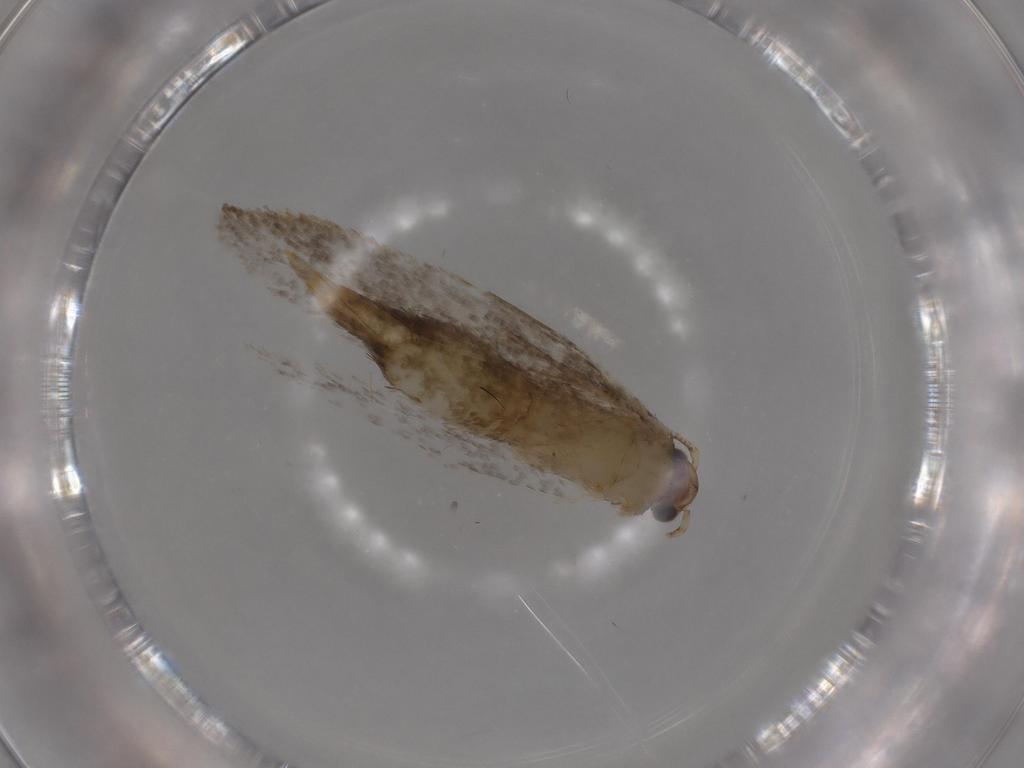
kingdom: Animalia
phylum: Arthropoda
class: Insecta
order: Lepidoptera
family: Meessiidae
